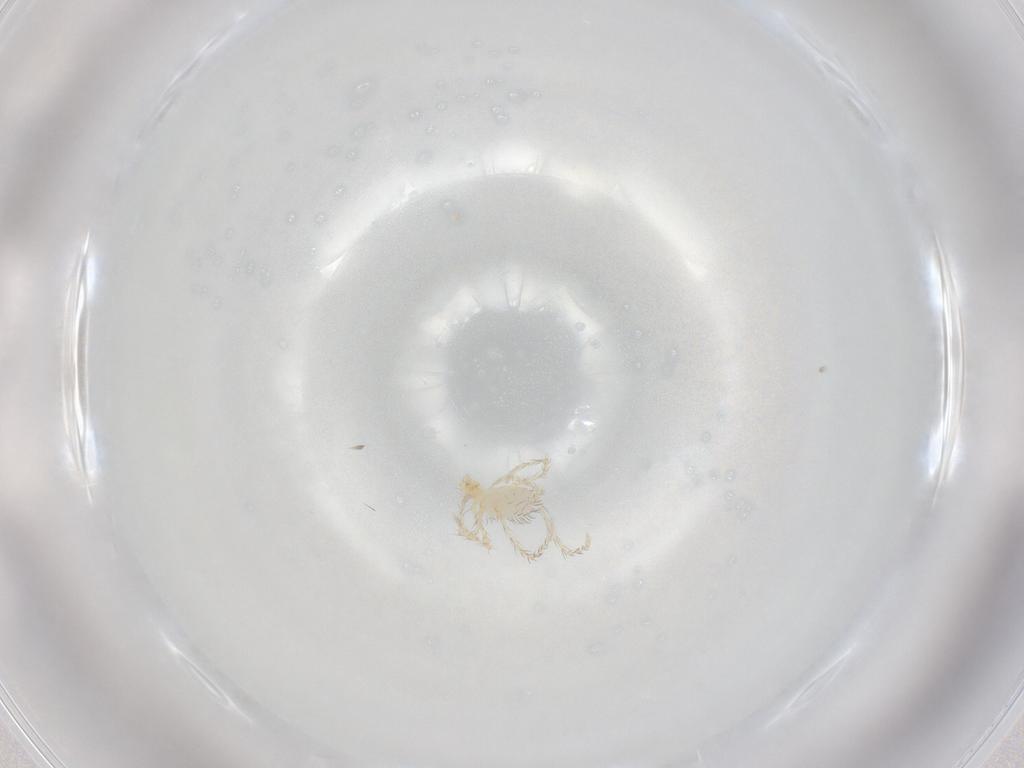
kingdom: Animalia
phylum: Arthropoda
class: Arachnida
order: Trombidiformes
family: Erythraeidae
